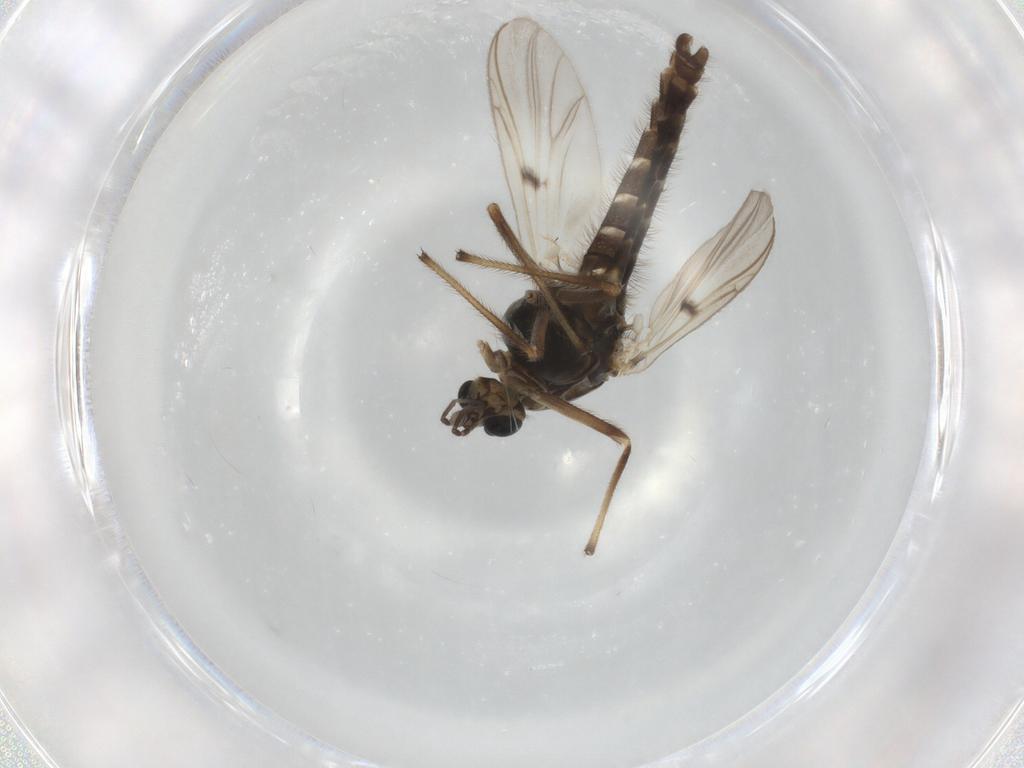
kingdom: Animalia
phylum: Arthropoda
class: Insecta
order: Diptera
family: Chironomidae
